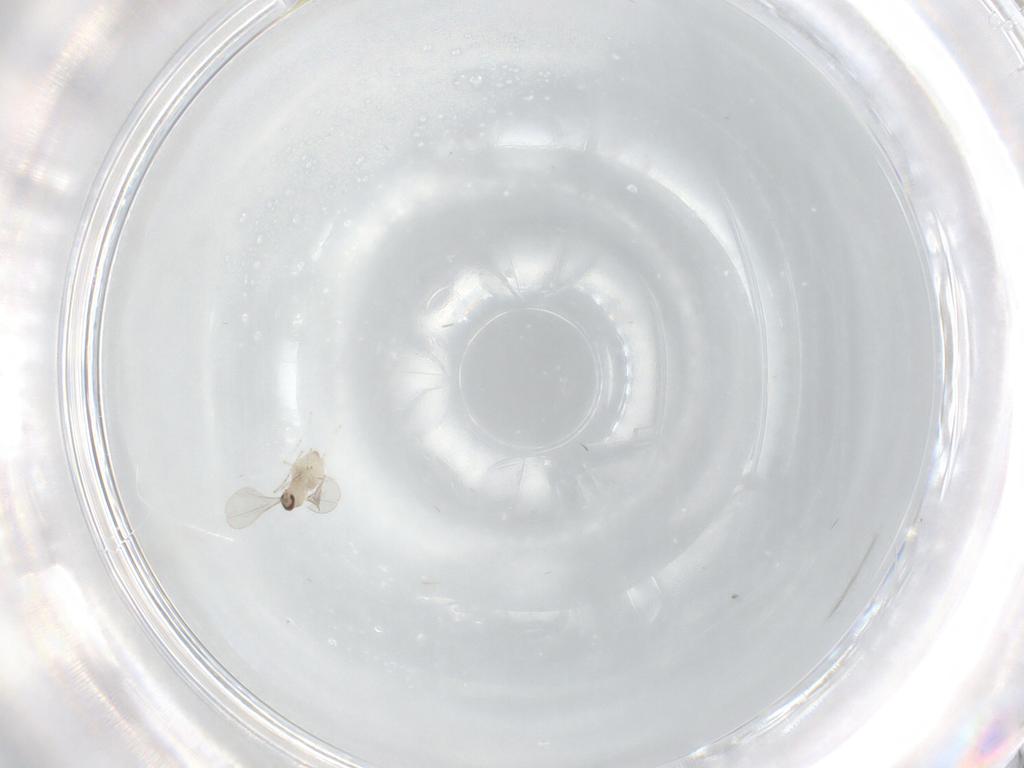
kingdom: Animalia
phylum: Arthropoda
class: Insecta
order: Diptera
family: Cecidomyiidae
